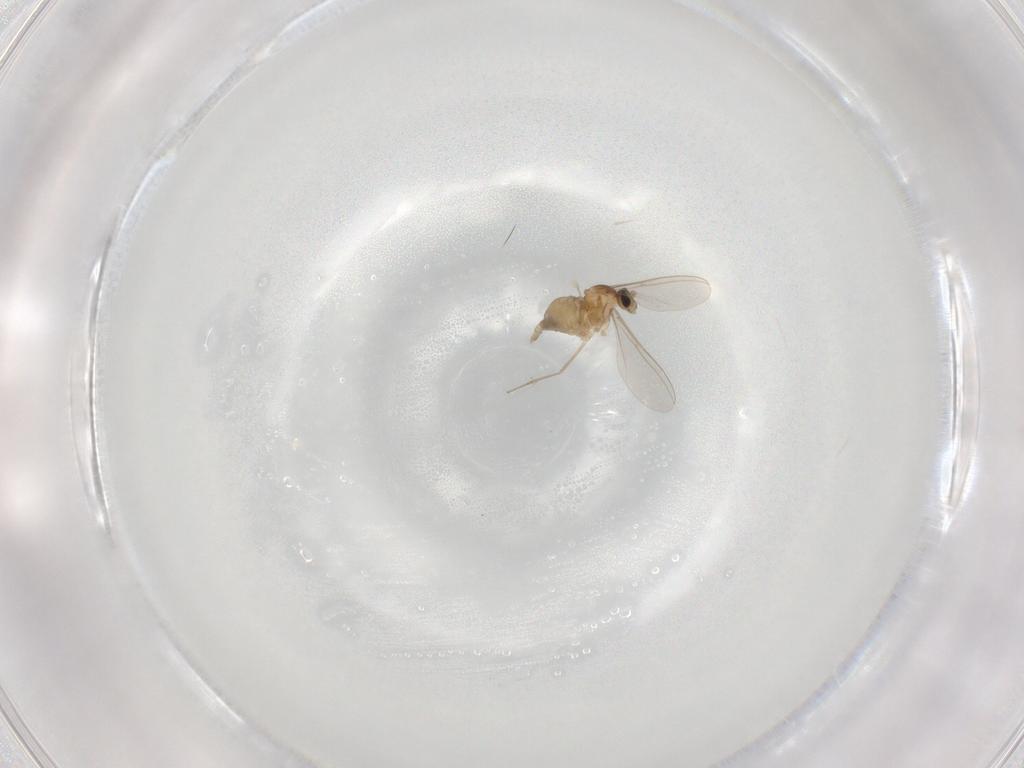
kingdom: Animalia
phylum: Arthropoda
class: Insecta
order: Diptera
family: Cecidomyiidae
